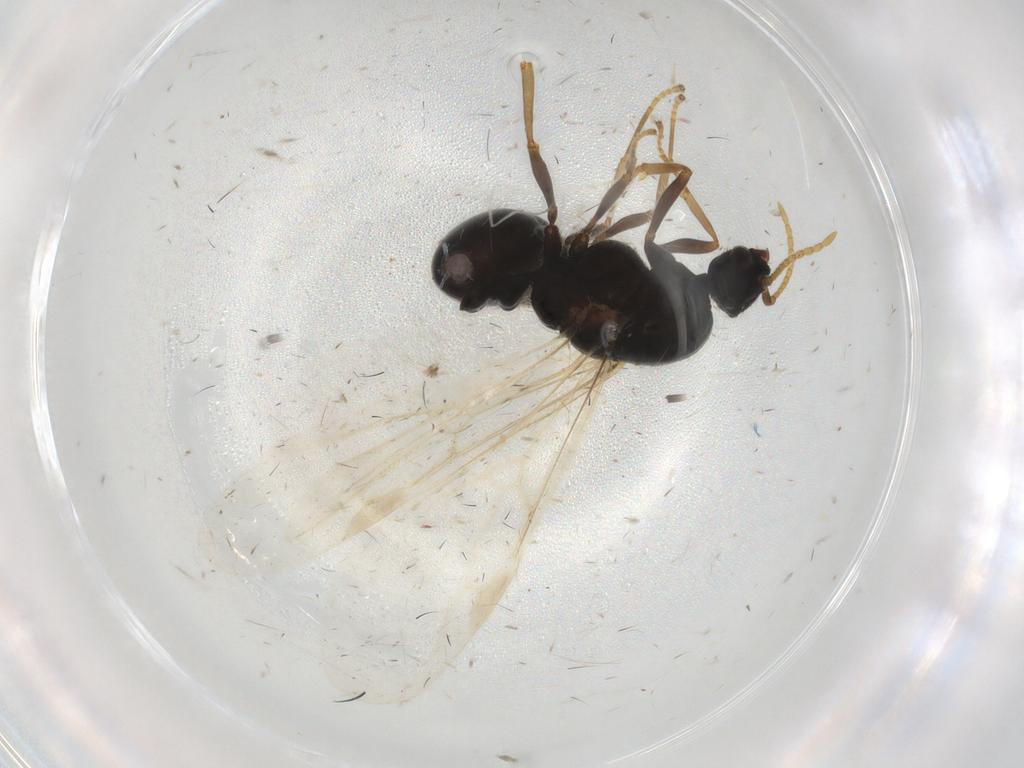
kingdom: Animalia
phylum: Arthropoda
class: Insecta
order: Hymenoptera
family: Formicidae
